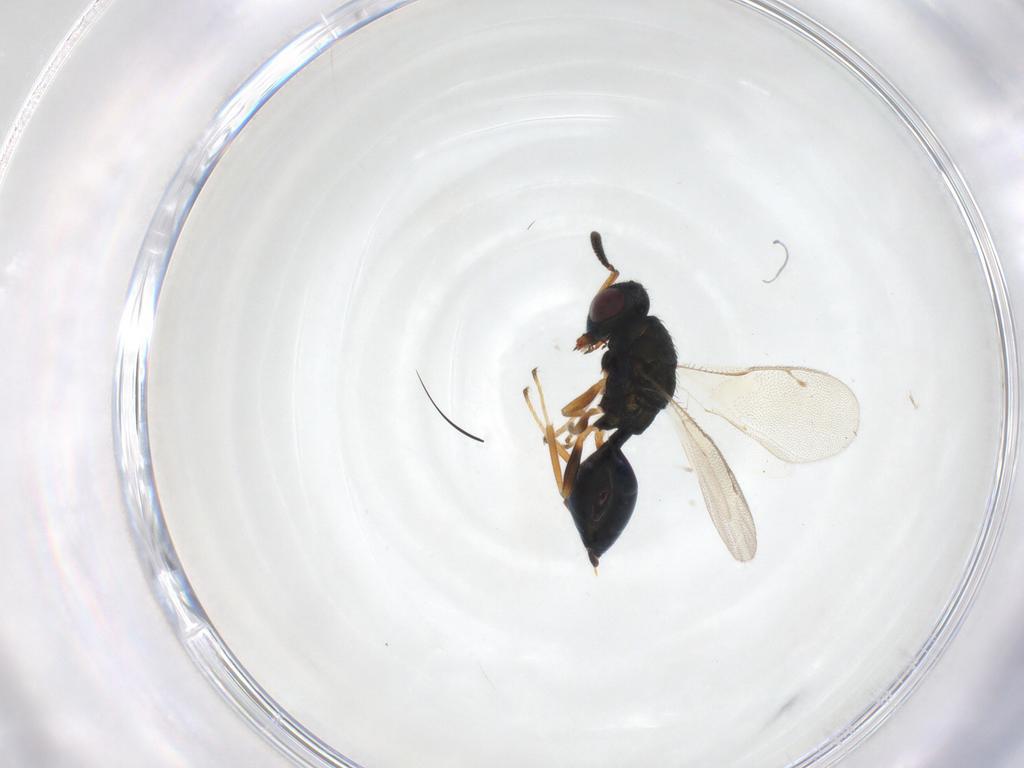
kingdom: Animalia
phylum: Arthropoda
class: Insecta
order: Hymenoptera
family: Pteromalidae
